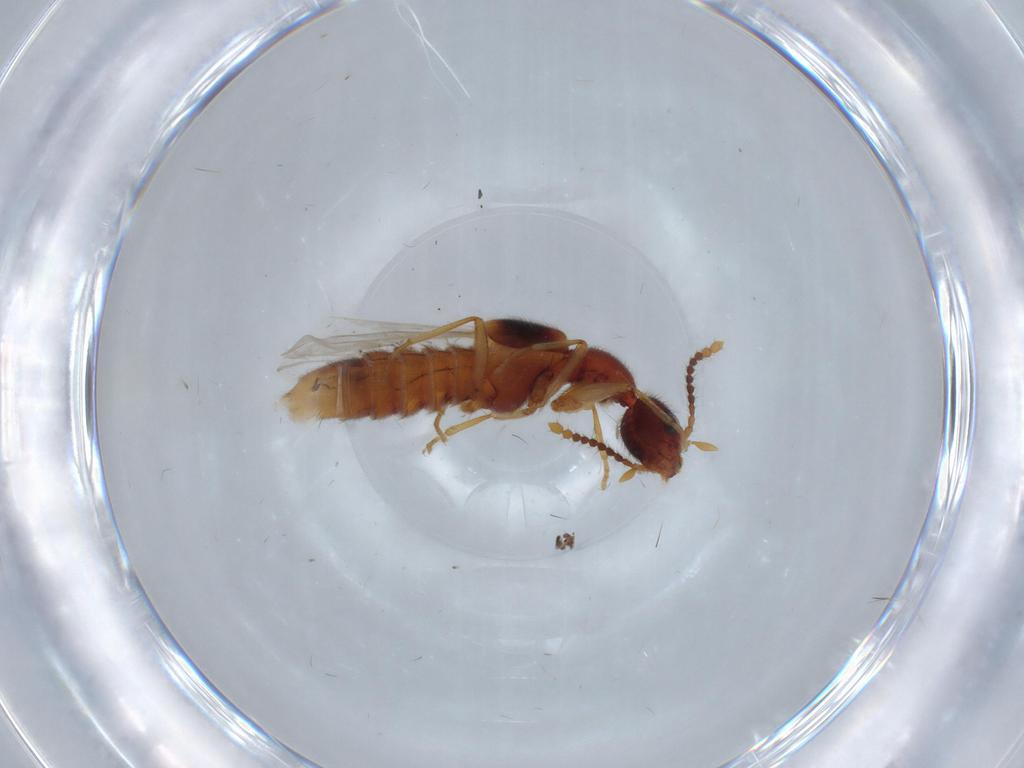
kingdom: Animalia
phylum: Arthropoda
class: Insecta
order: Coleoptera
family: Staphylinidae
